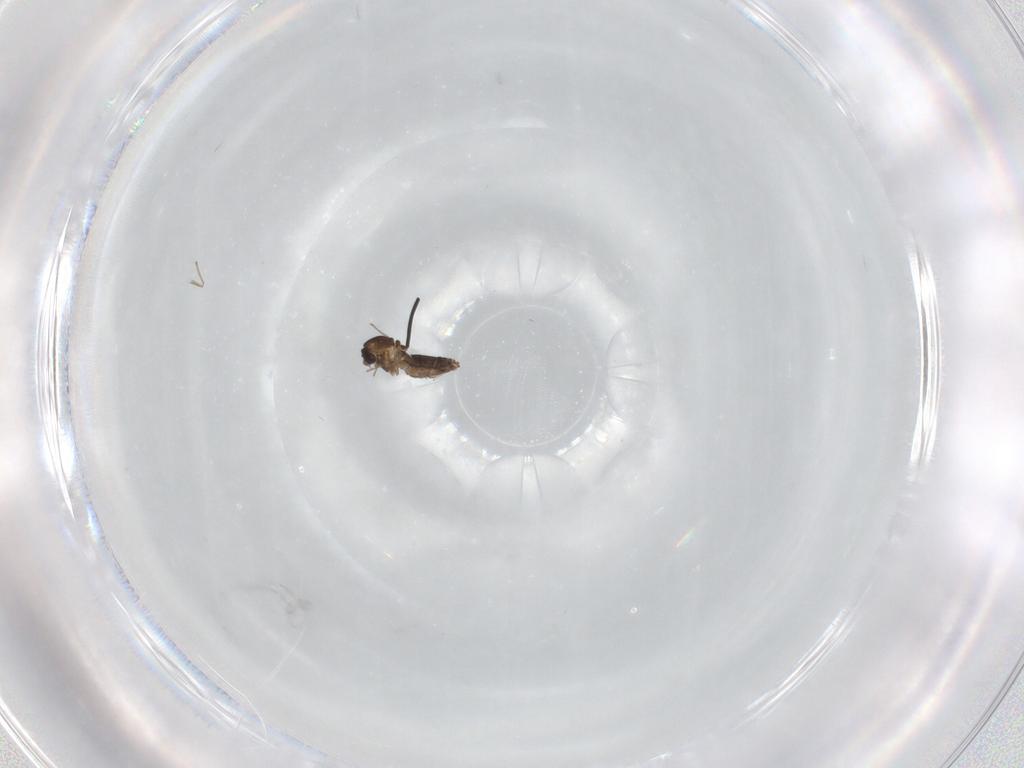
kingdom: Animalia
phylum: Arthropoda
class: Insecta
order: Diptera
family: Chironomidae
